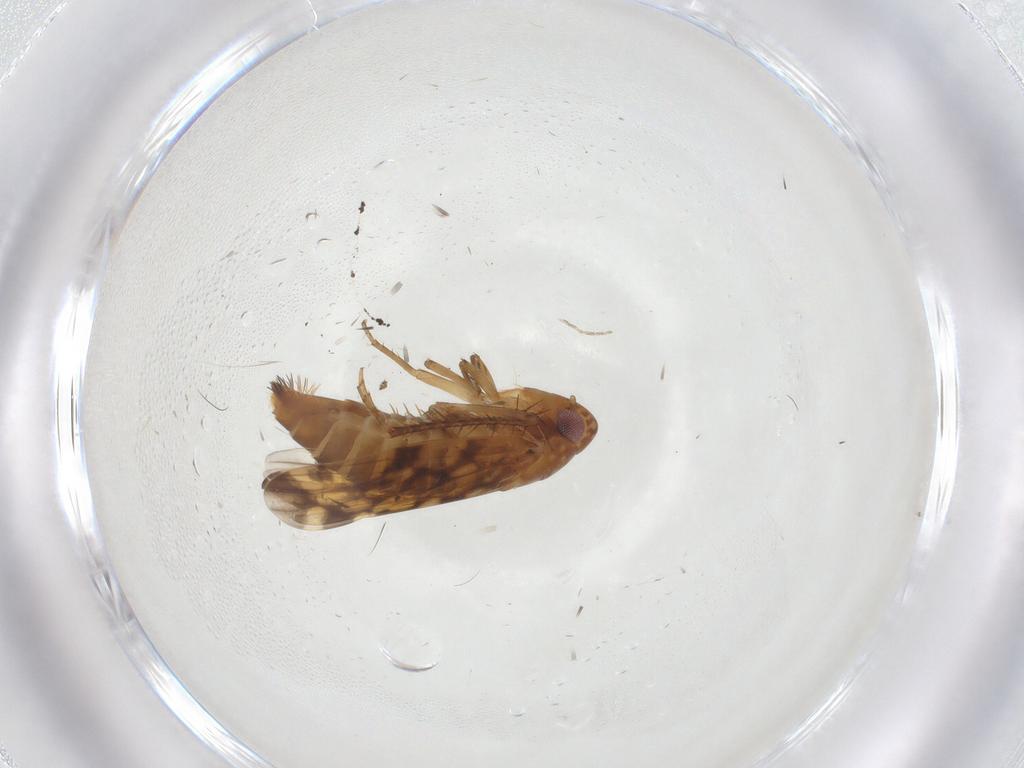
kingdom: Animalia
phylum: Arthropoda
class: Insecta
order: Hemiptera
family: Cicadellidae
